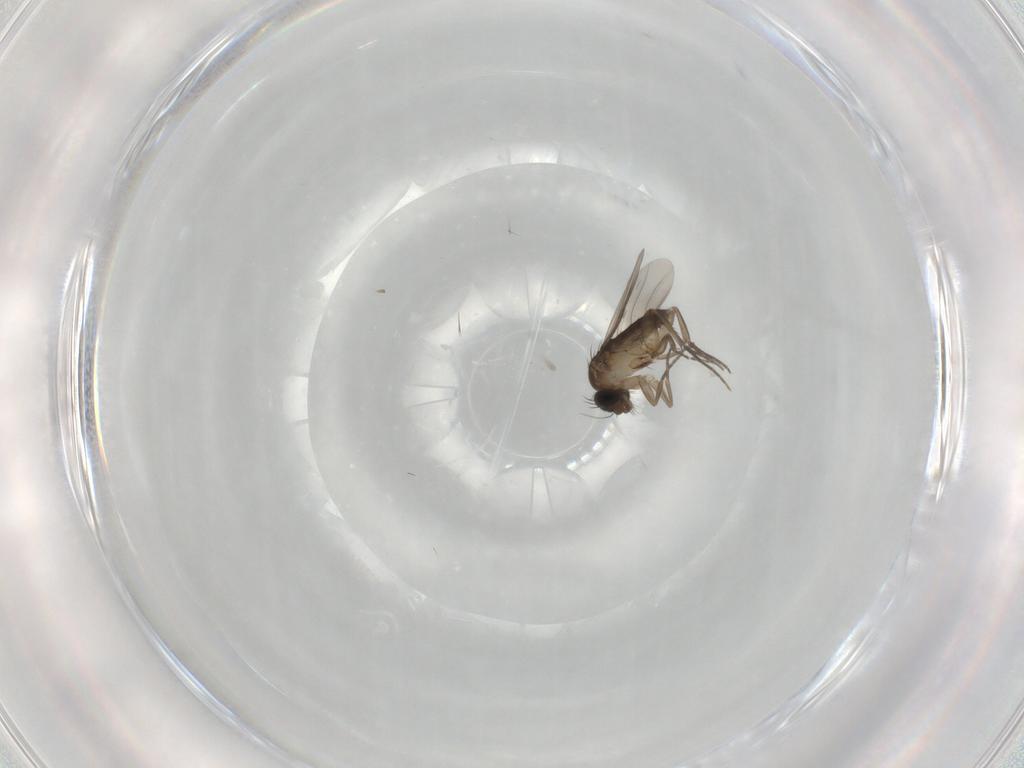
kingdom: Animalia
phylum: Arthropoda
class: Insecta
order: Diptera
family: Phoridae
